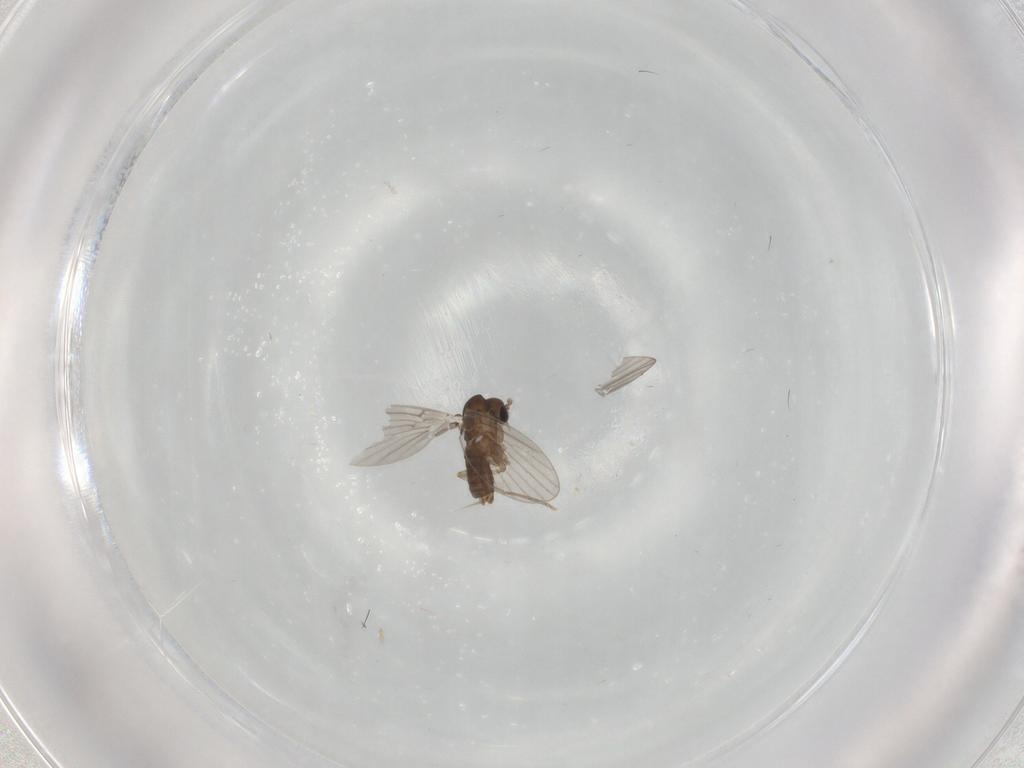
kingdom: Animalia
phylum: Arthropoda
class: Insecta
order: Diptera
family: Cecidomyiidae
